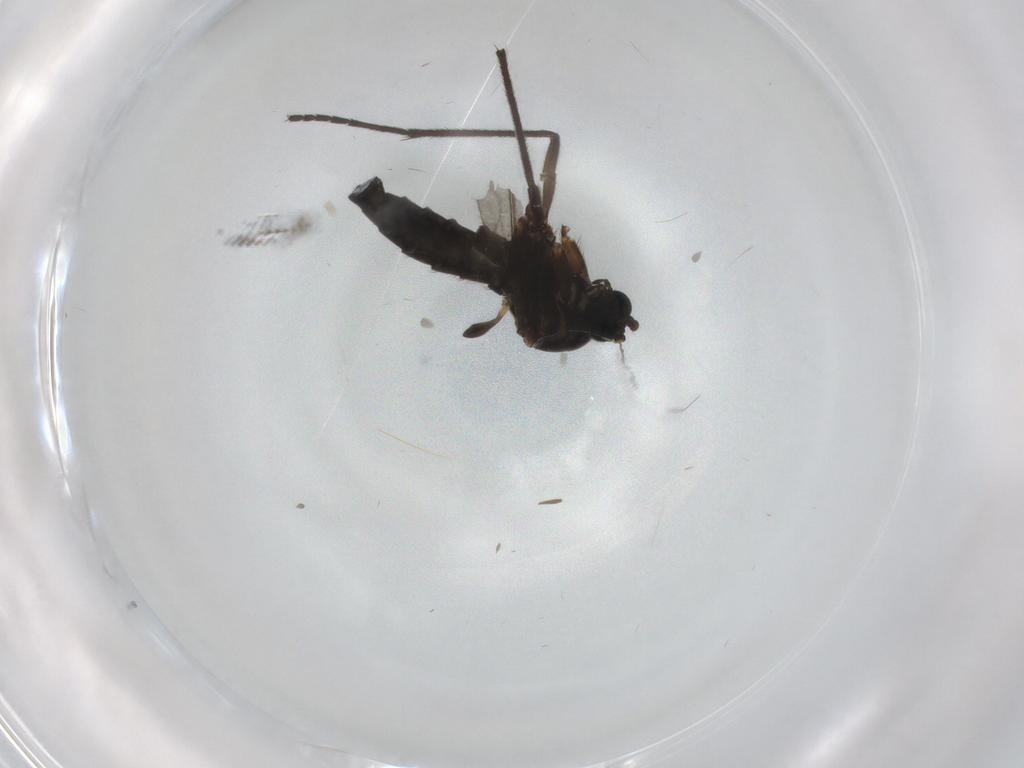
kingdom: Animalia
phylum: Arthropoda
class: Insecta
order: Diptera
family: Sciaridae
